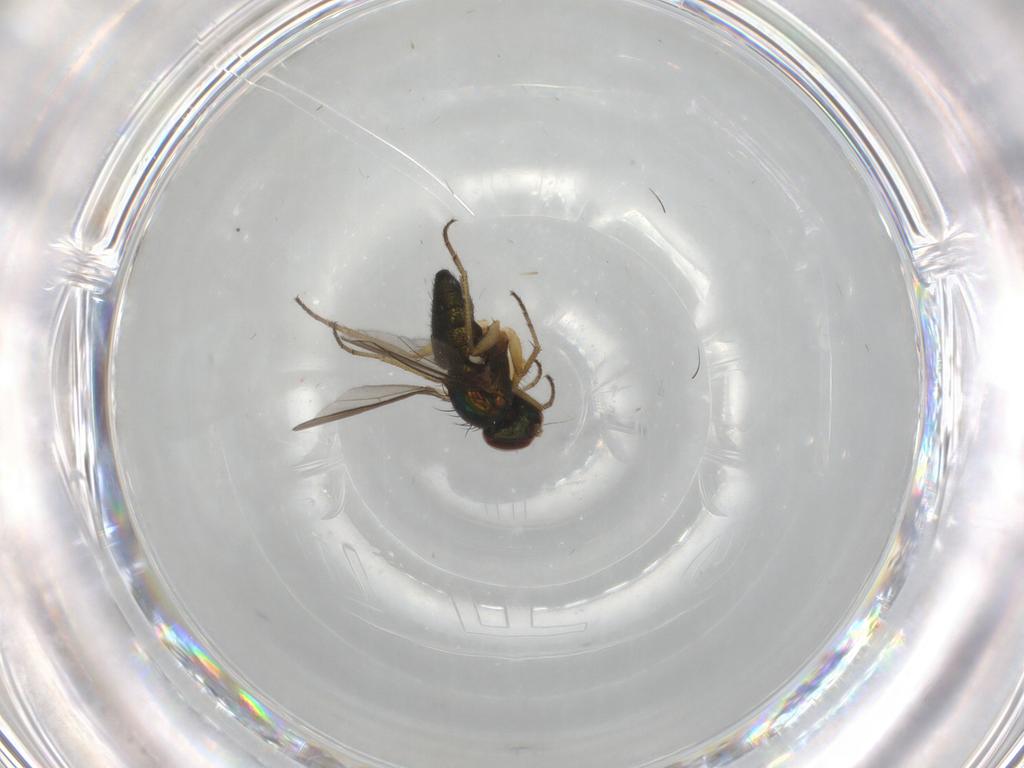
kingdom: Animalia
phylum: Arthropoda
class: Insecta
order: Diptera
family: Dolichopodidae
